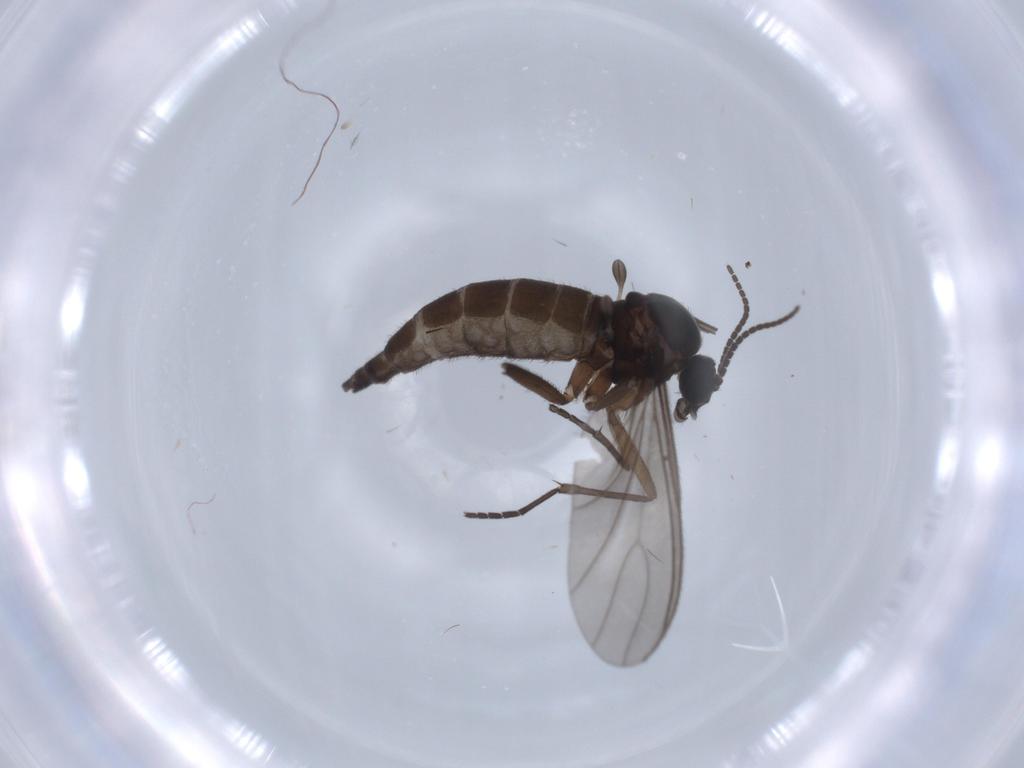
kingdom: Animalia
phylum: Arthropoda
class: Insecta
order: Diptera
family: Sciaridae
